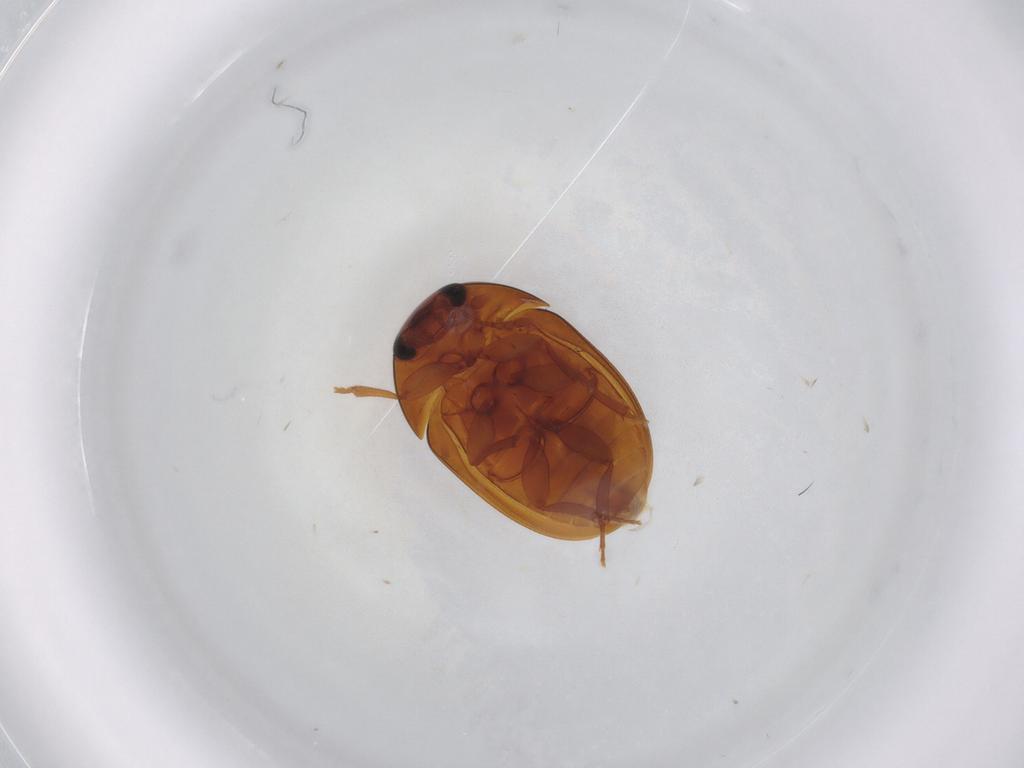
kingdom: Animalia
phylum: Arthropoda
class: Insecta
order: Coleoptera
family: Phalacridae
